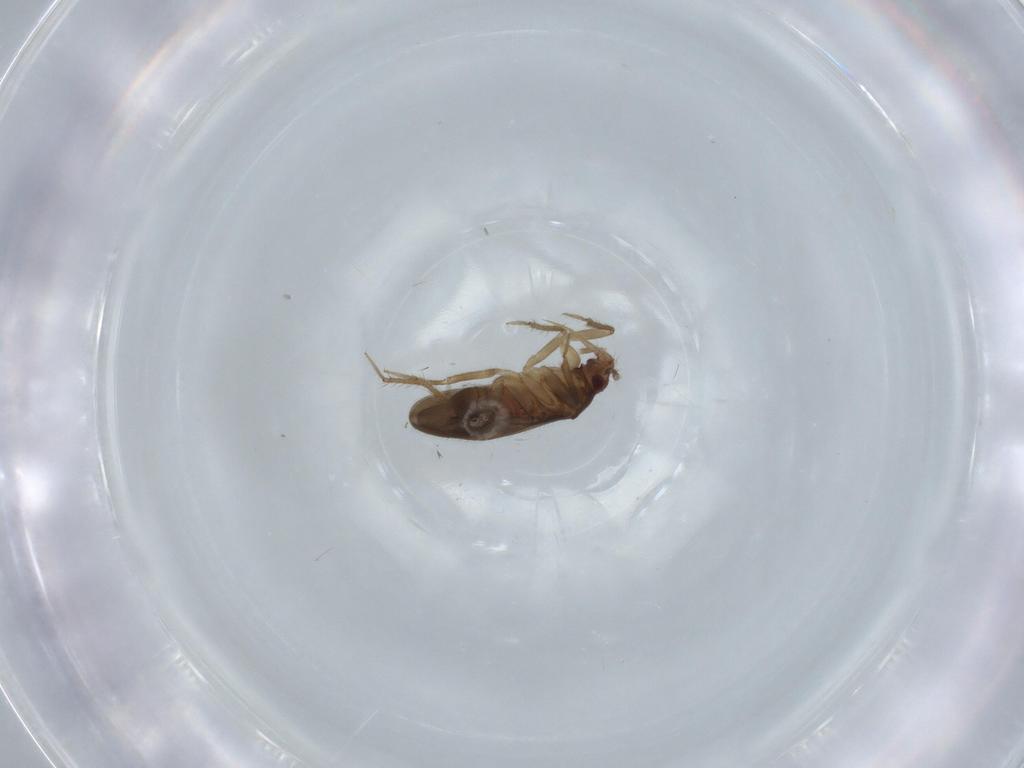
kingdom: Animalia
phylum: Arthropoda
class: Insecta
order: Hemiptera
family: Ceratocombidae
